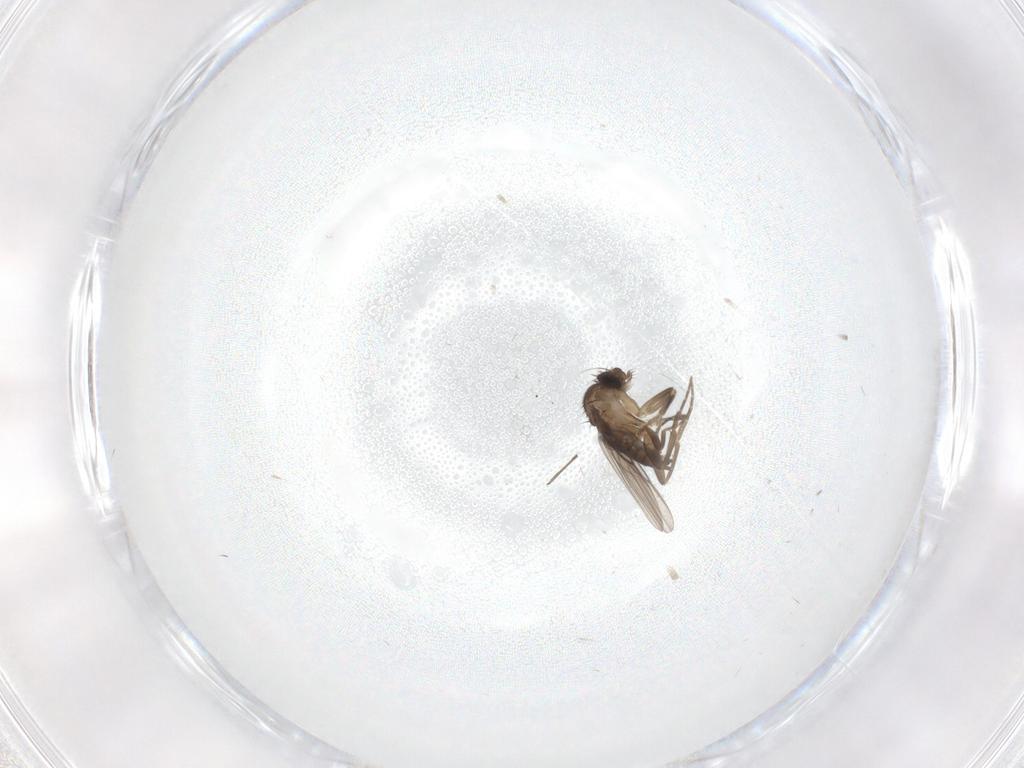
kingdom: Animalia
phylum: Arthropoda
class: Insecta
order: Diptera
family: Phoridae
